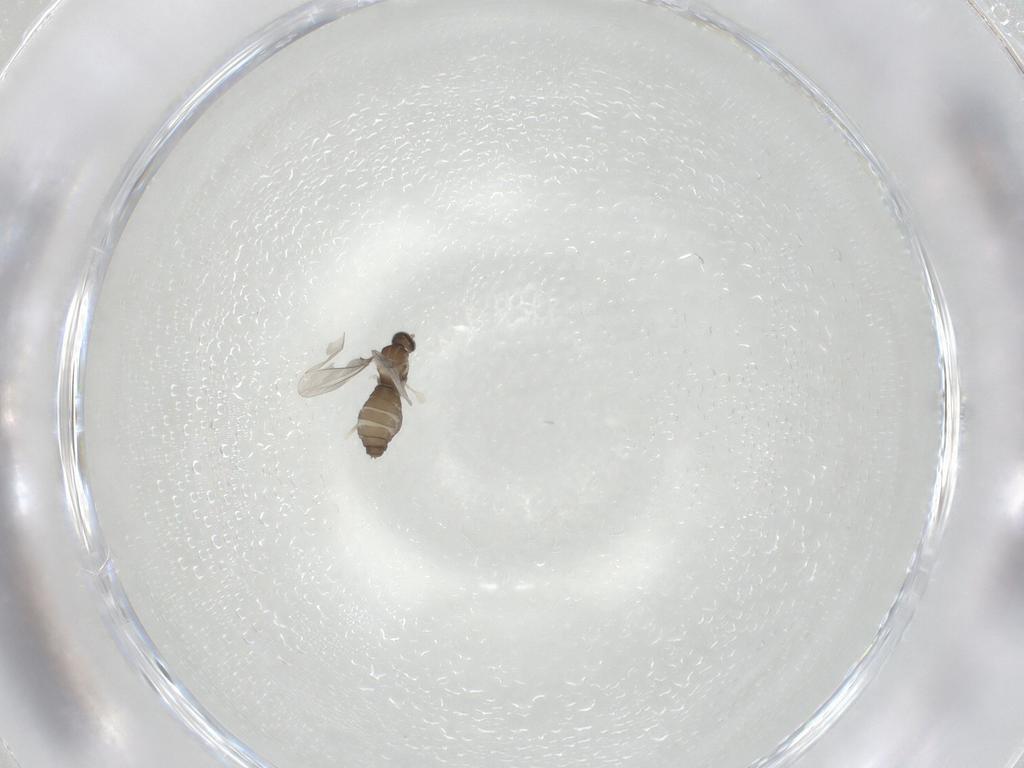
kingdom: Animalia
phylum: Arthropoda
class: Insecta
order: Diptera
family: Cecidomyiidae
